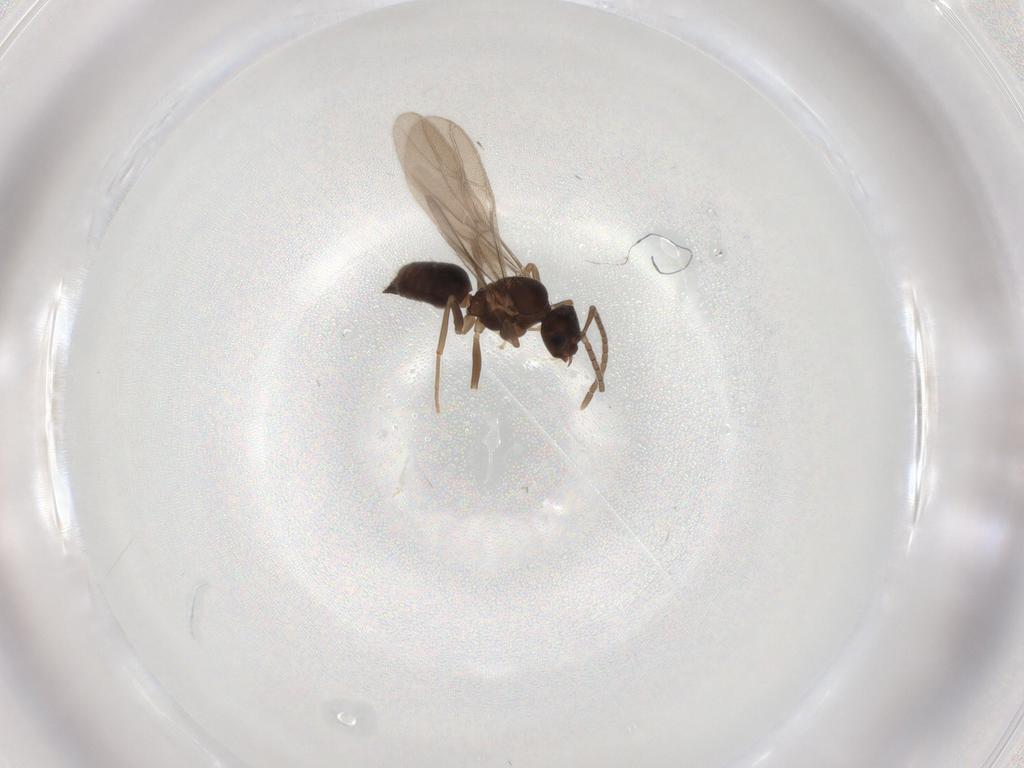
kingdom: Animalia
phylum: Arthropoda
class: Insecta
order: Hymenoptera
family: Formicidae
